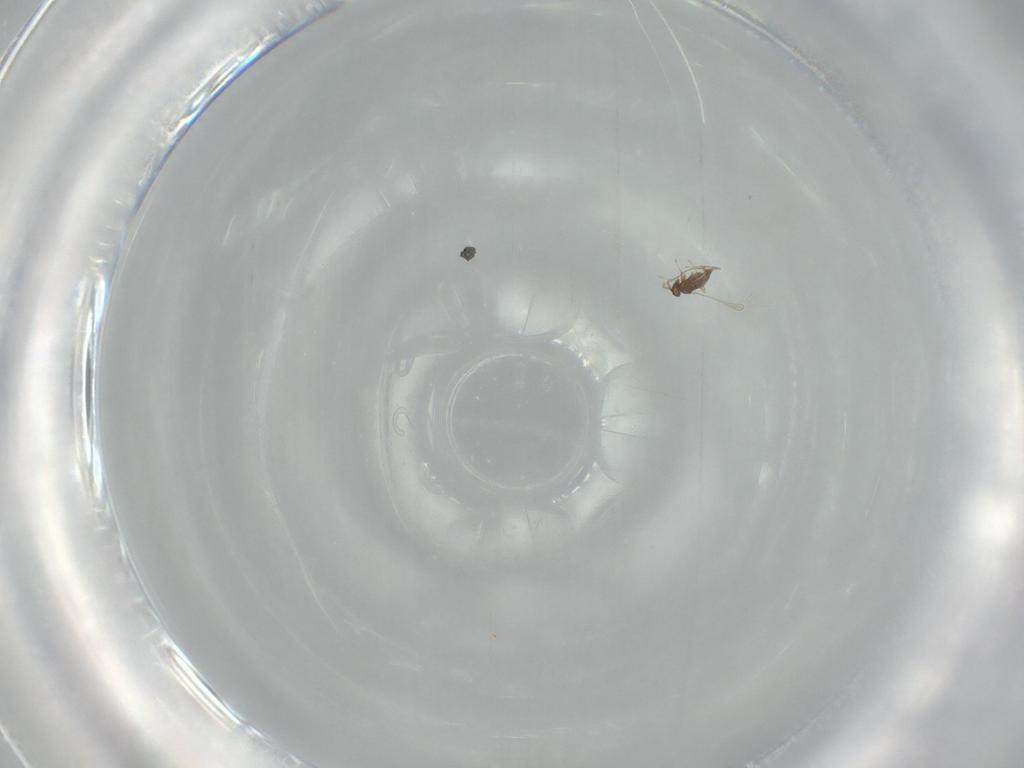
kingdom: Animalia
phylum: Arthropoda
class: Insecta
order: Hymenoptera
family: Mymaridae
